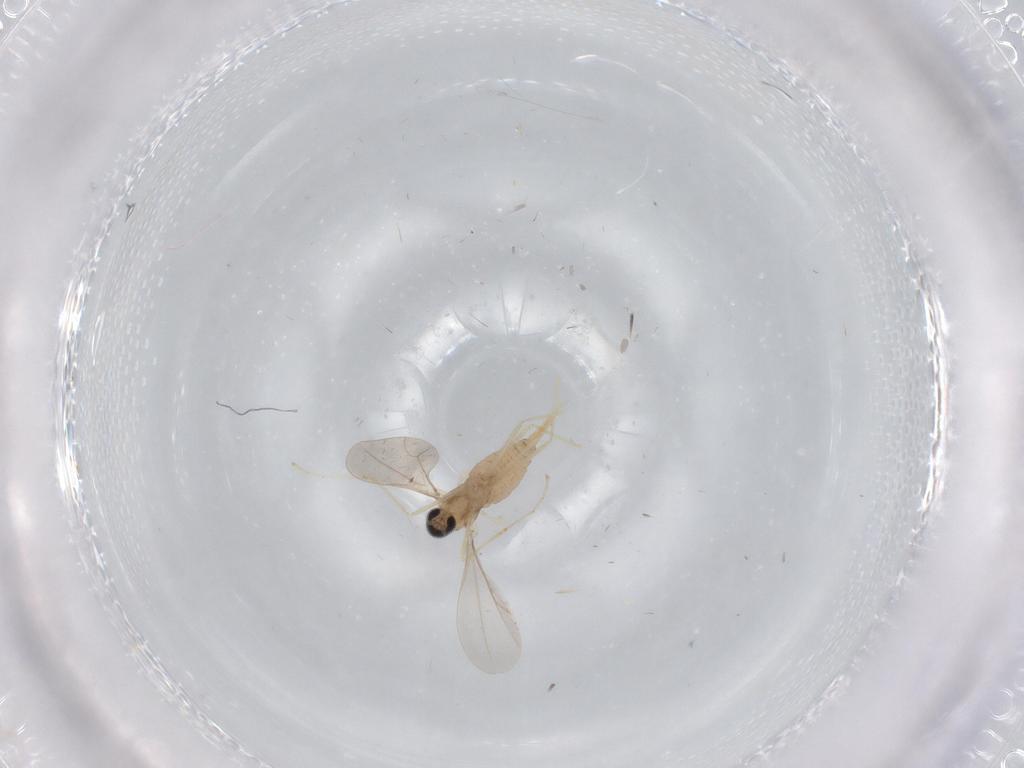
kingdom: Animalia
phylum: Arthropoda
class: Insecta
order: Diptera
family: Cecidomyiidae
